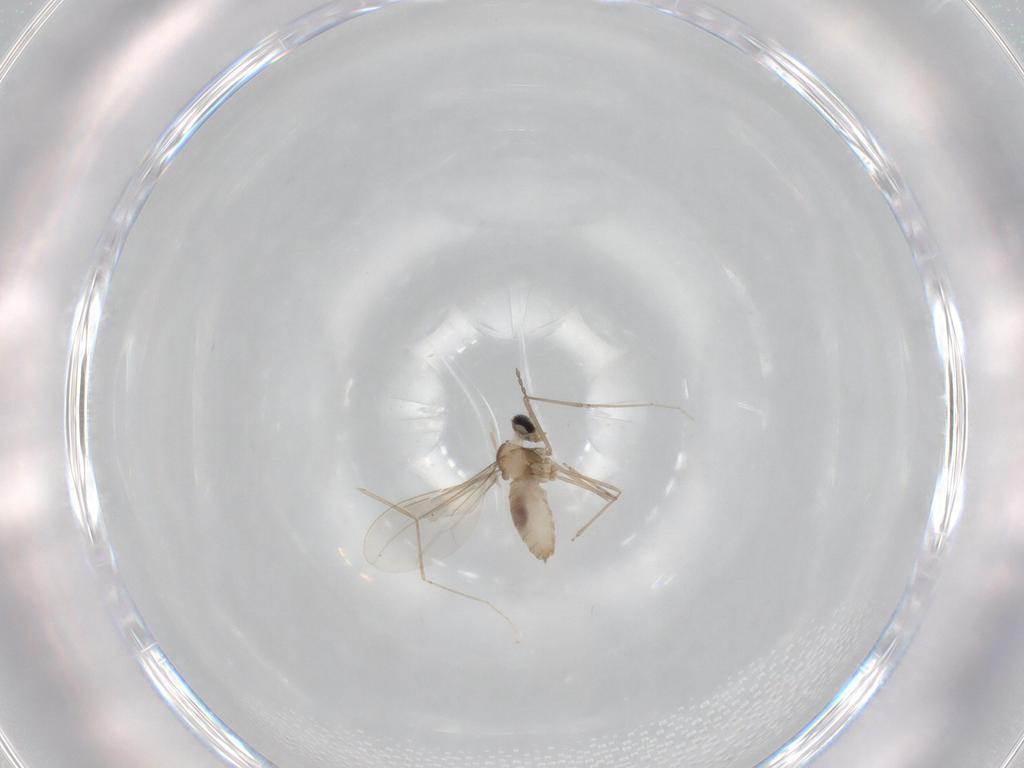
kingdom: Animalia
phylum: Arthropoda
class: Insecta
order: Diptera
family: Cecidomyiidae
